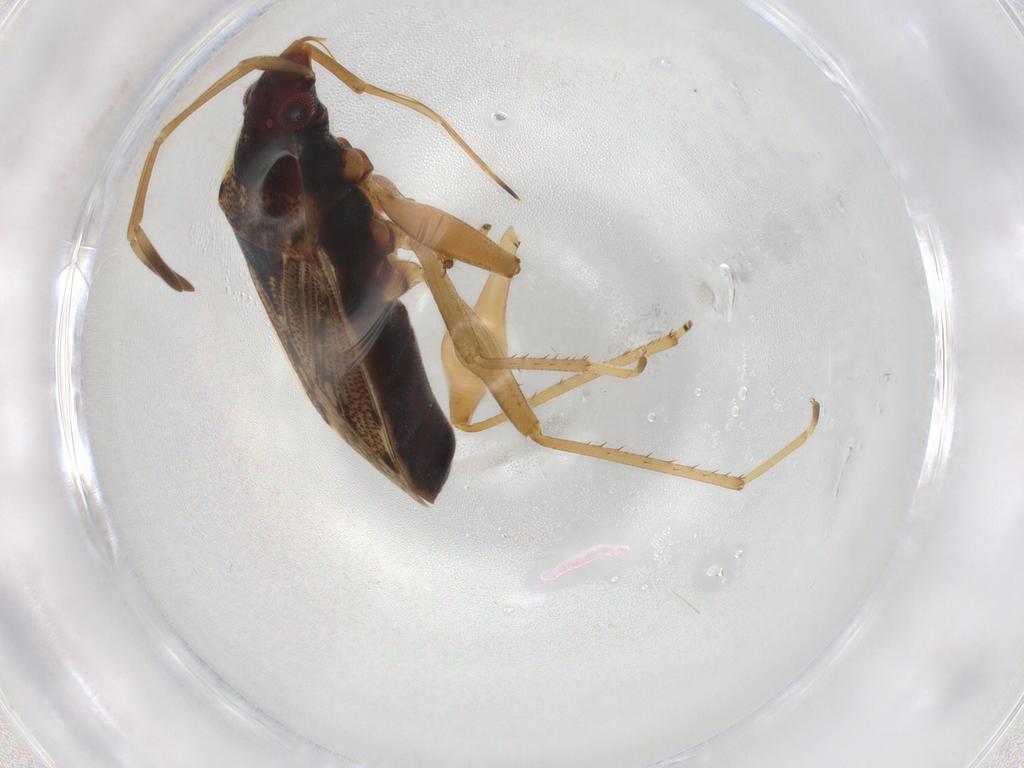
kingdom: Animalia
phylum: Arthropoda
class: Insecta
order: Hemiptera
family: Rhyparochromidae
